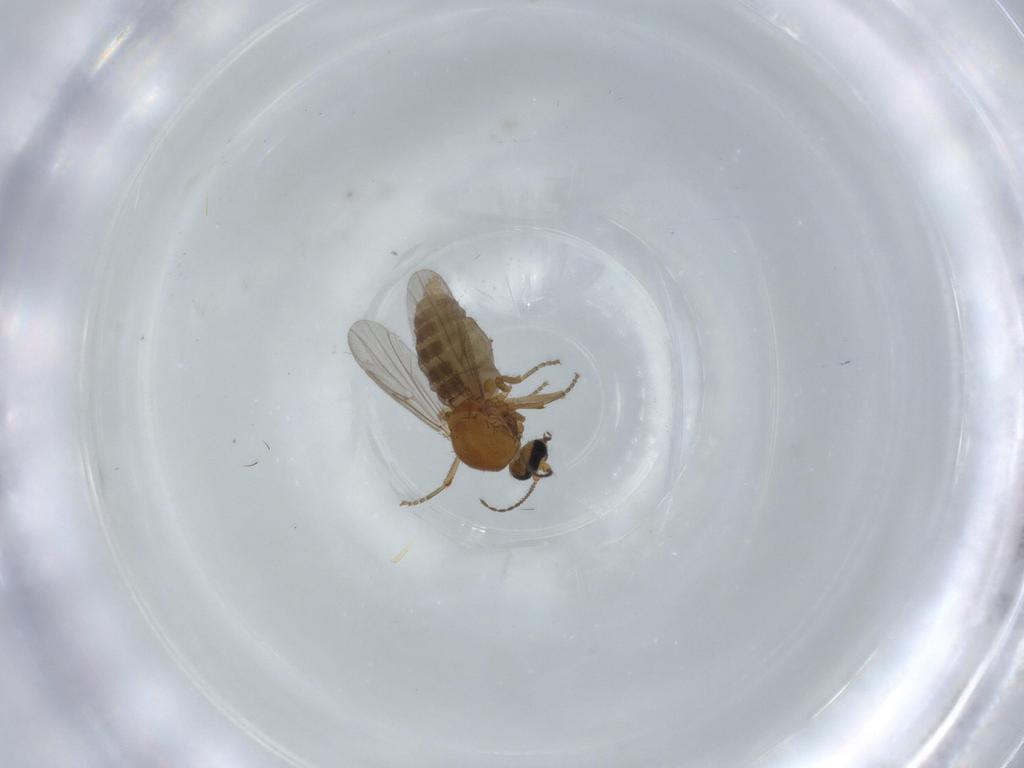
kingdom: Animalia
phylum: Arthropoda
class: Insecta
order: Diptera
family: Ceratopogonidae
